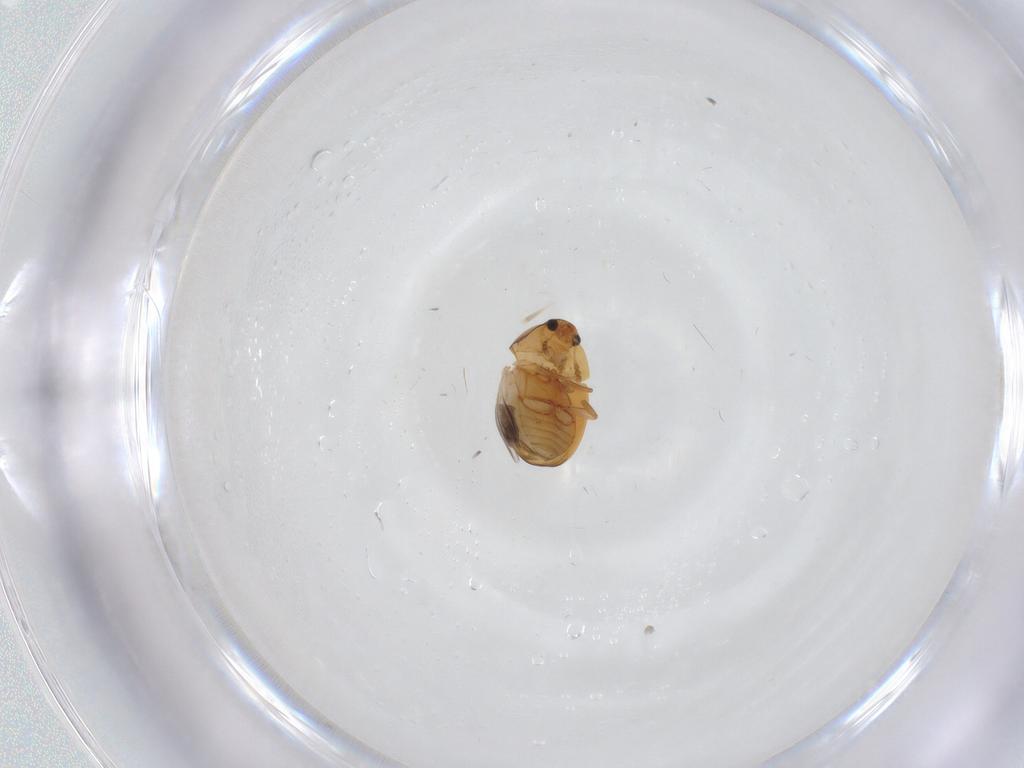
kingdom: Animalia
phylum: Arthropoda
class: Insecta
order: Coleoptera
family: Phalacridae
